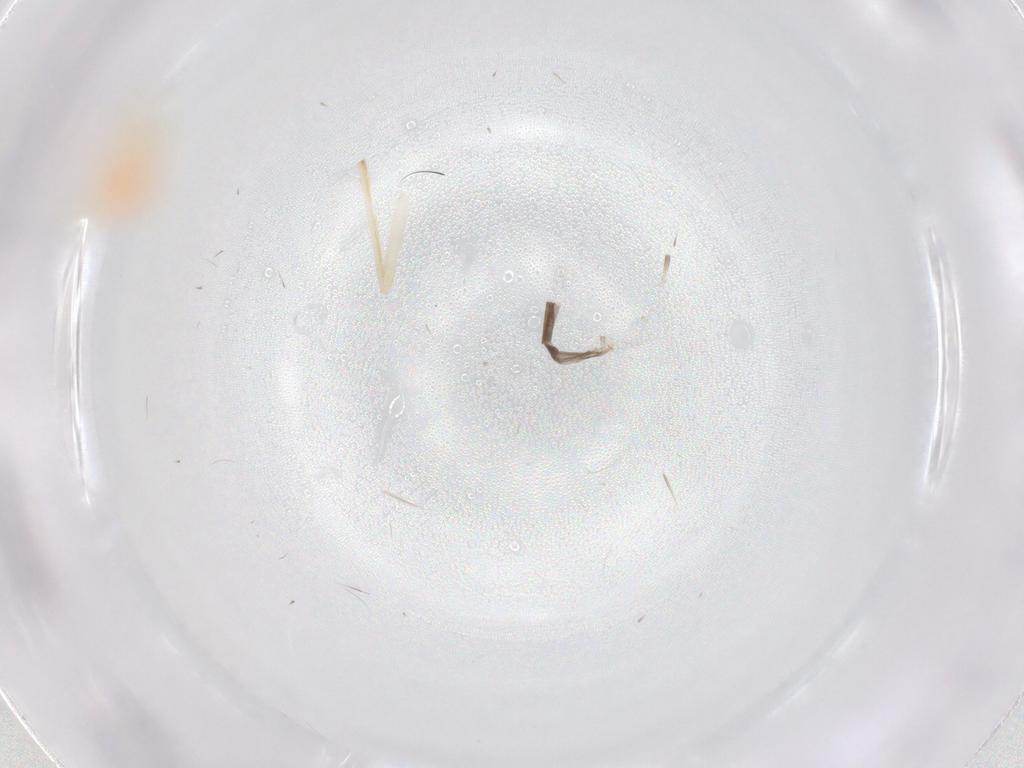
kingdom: Animalia
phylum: Arthropoda
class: Insecta
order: Hemiptera
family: Tropiduchidae
